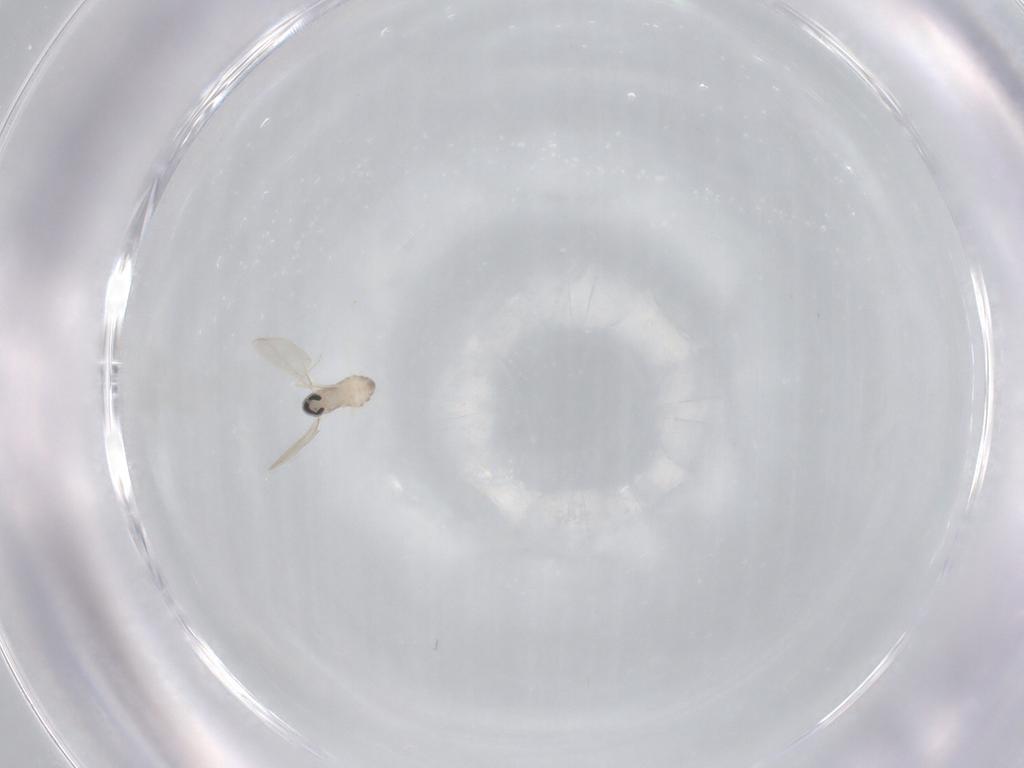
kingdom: Animalia
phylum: Arthropoda
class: Insecta
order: Diptera
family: Cecidomyiidae
